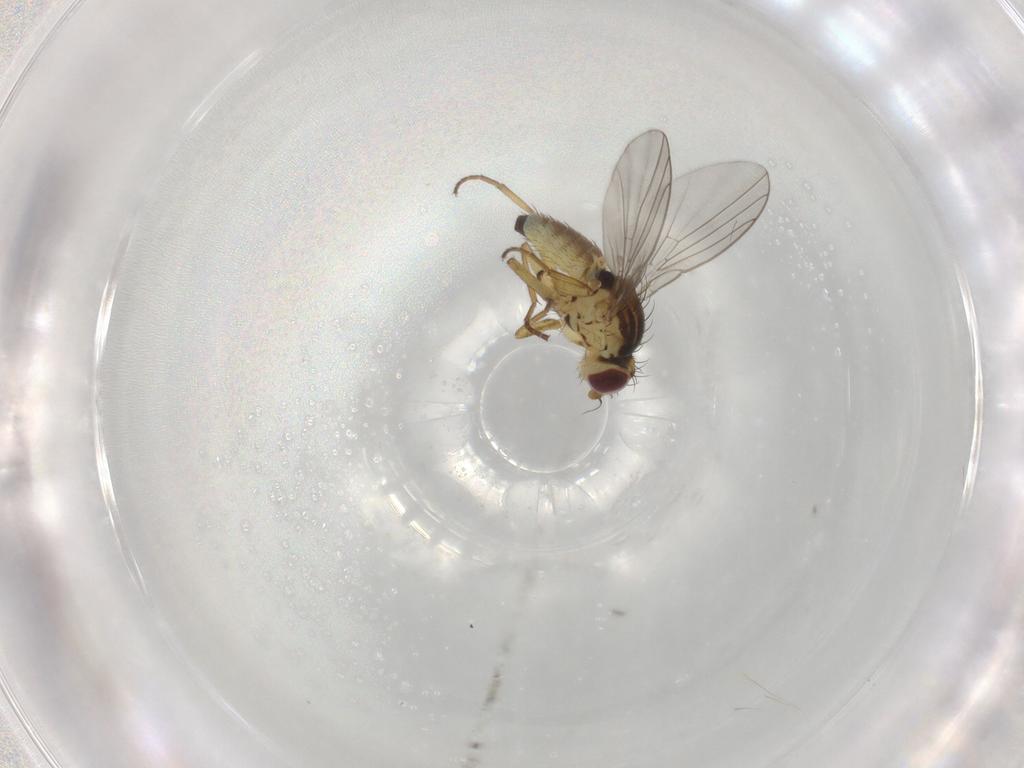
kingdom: Animalia
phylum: Arthropoda
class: Insecta
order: Diptera
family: Agromyzidae
